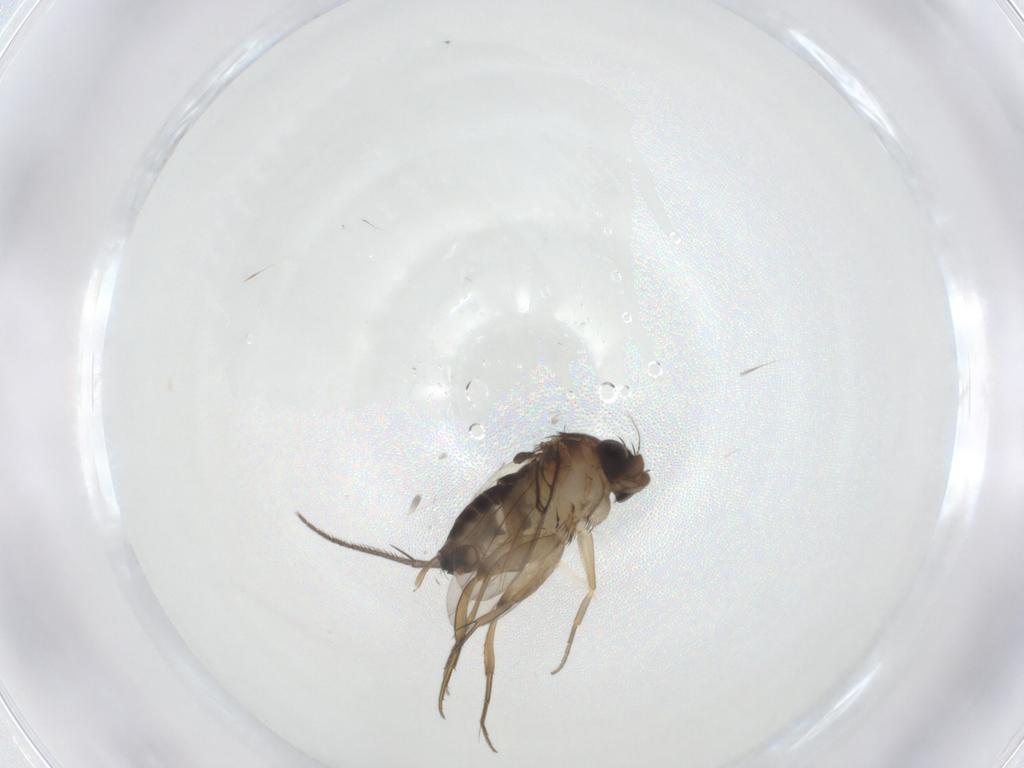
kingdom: Animalia
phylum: Arthropoda
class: Insecta
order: Diptera
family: Phoridae
